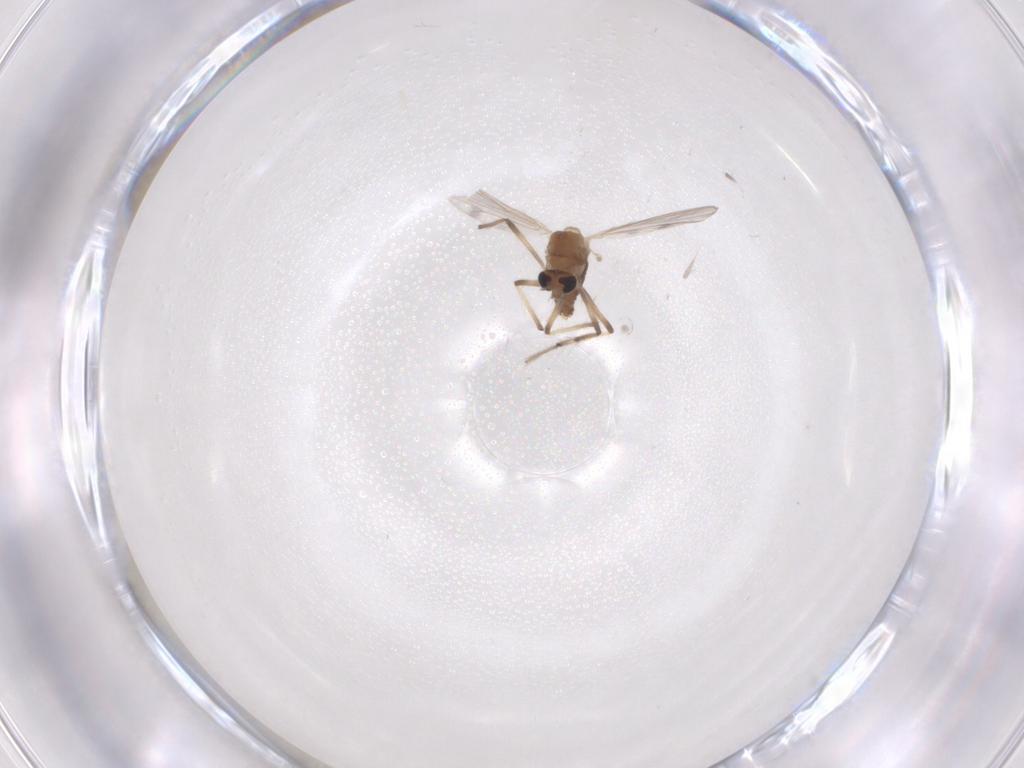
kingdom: Animalia
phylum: Arthropoda
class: Insecta
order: Diptera
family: Chironomidae
